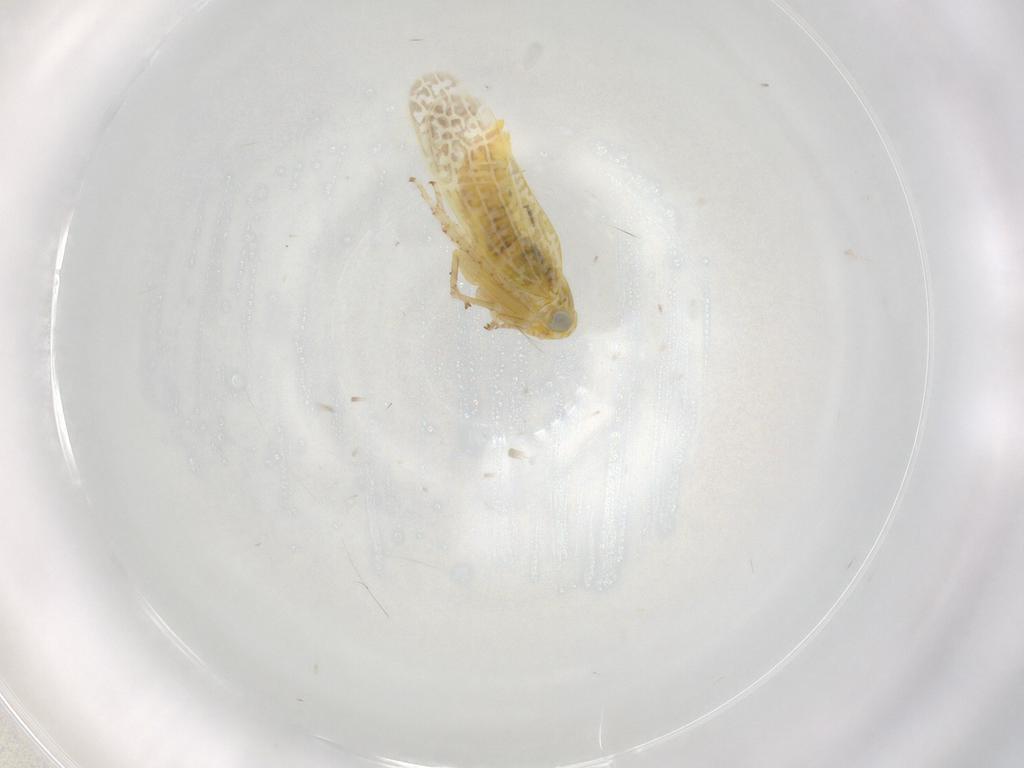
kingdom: Animalia
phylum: Arthropoda
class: Insecta
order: Hemiptera
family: Cicadellidae
